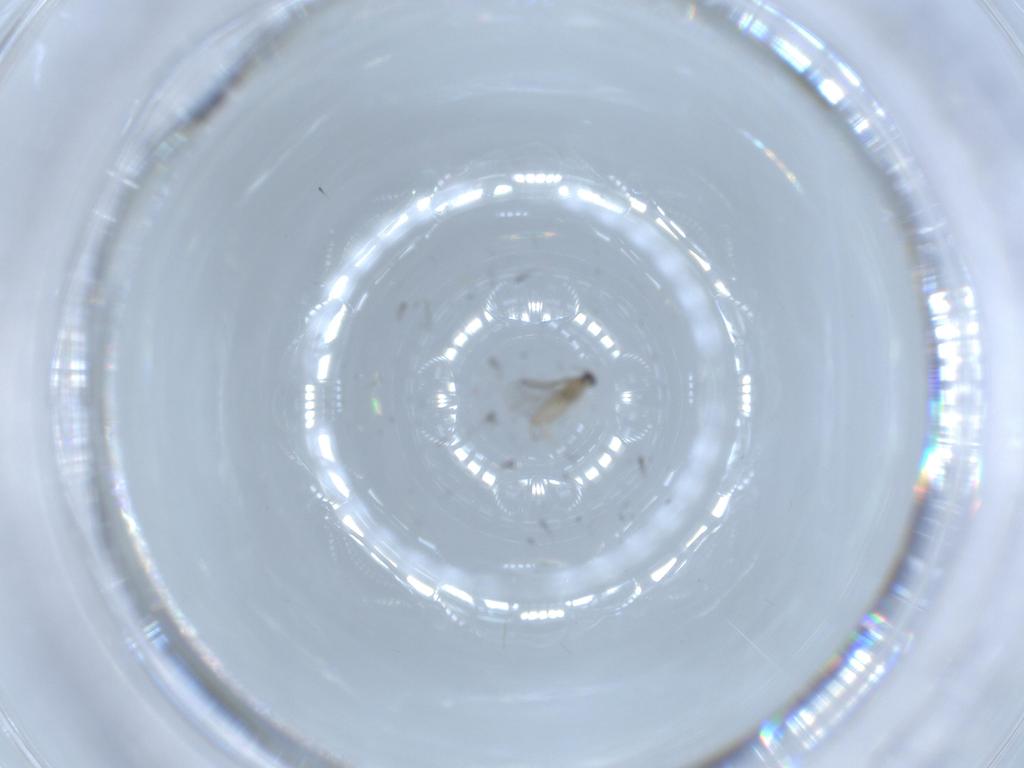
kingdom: Animalia
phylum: Arthropoda
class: Insecta
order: Diptera
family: Cecidomyiidae
